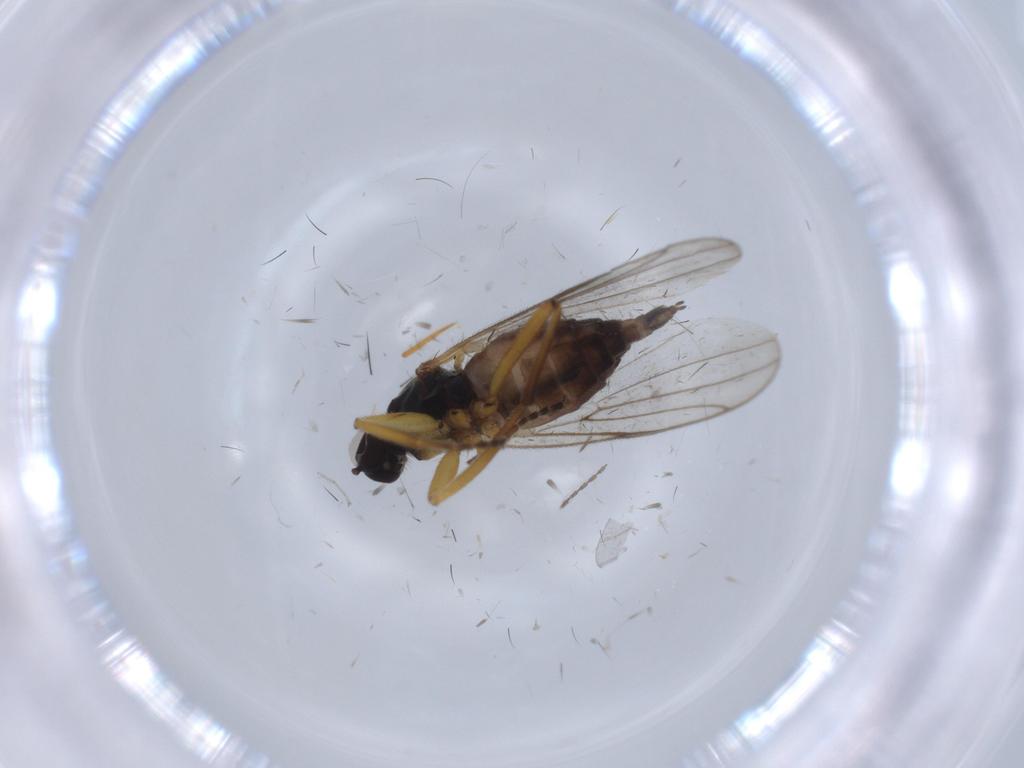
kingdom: Animalia
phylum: Arthropoda
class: Insecta
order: Diptera
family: Hybotidae
